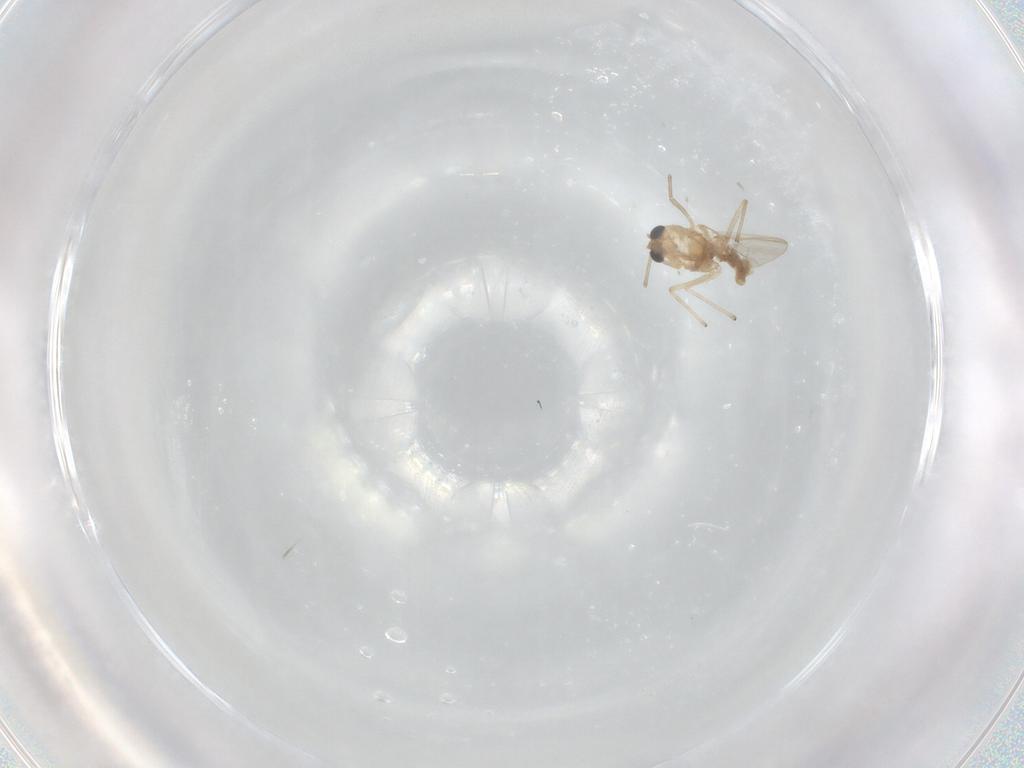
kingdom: Animalia
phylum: Arthropoda
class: Insecta
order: Diptera
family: Chironomidae
